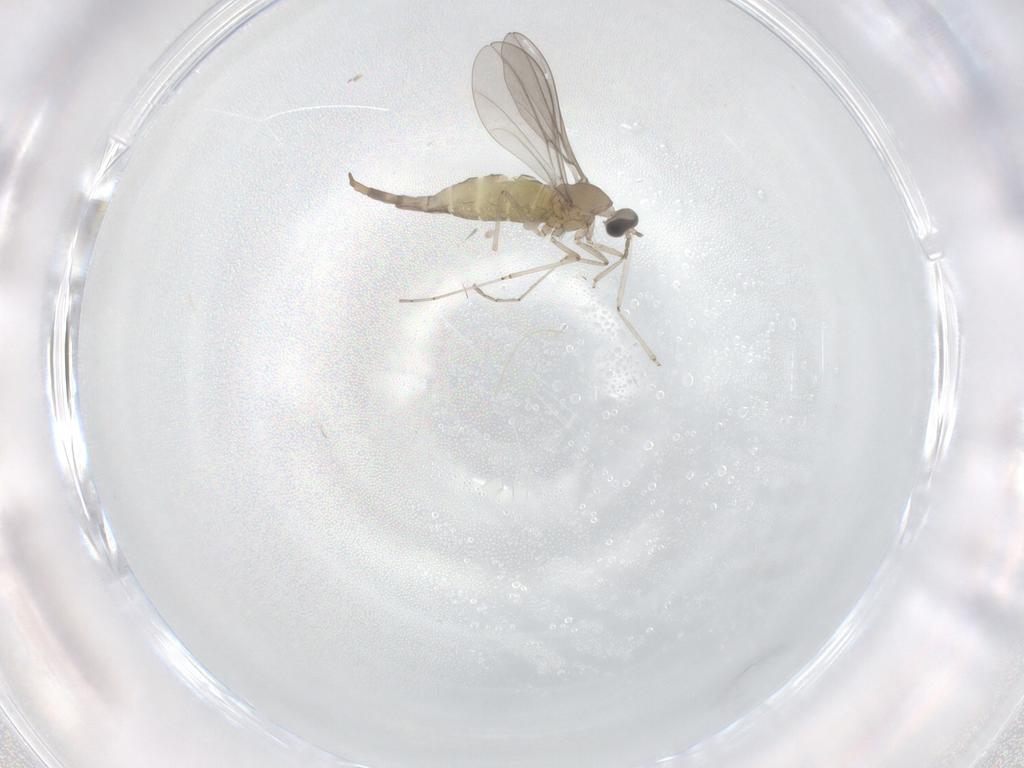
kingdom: Animalia
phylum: Arthropoda
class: Insecta
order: Diptera
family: Cecidomyiidae
